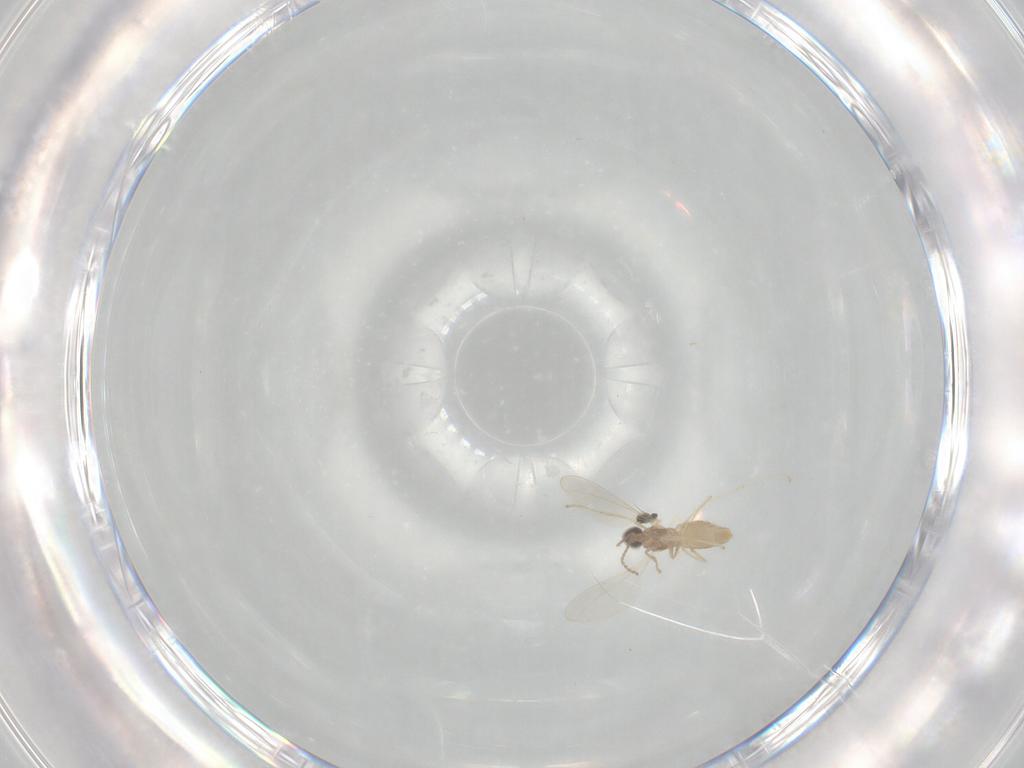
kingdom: Animalia
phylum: Arthropoda
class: Insecta
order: Diptera
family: Cecidomyiidae
